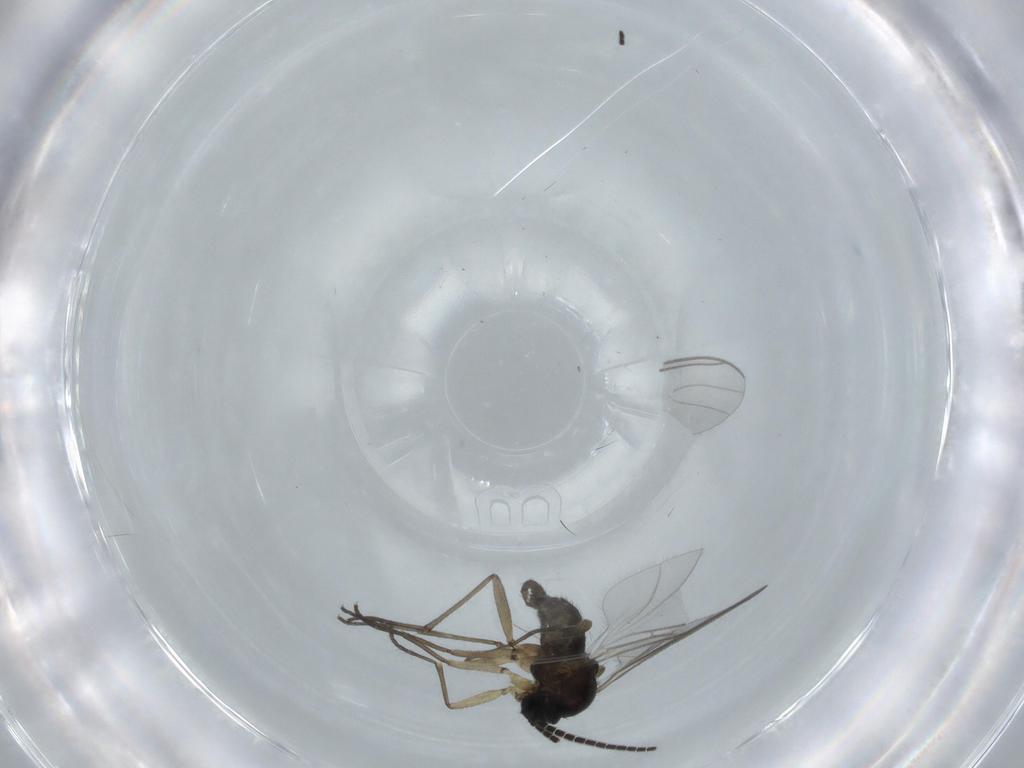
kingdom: Animalia
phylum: Arthropoda
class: Insecta
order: Diptera
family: Sciaridae
